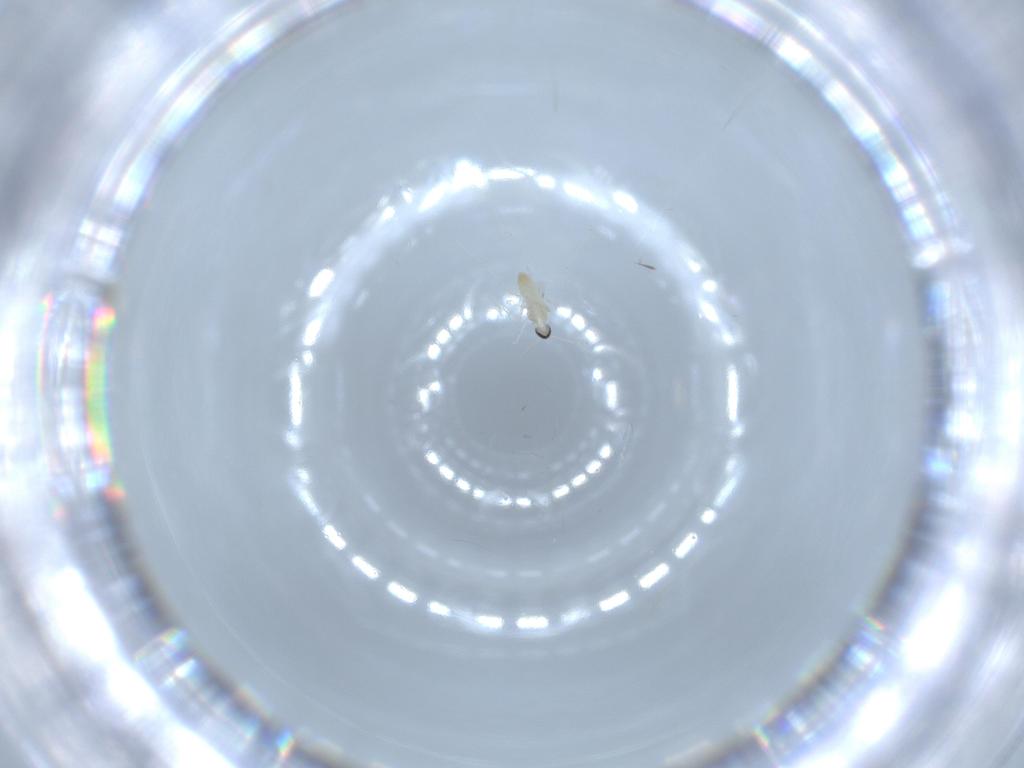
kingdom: Animalia
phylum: Arthropoda
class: Insecta
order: Diptera
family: Phoridae
